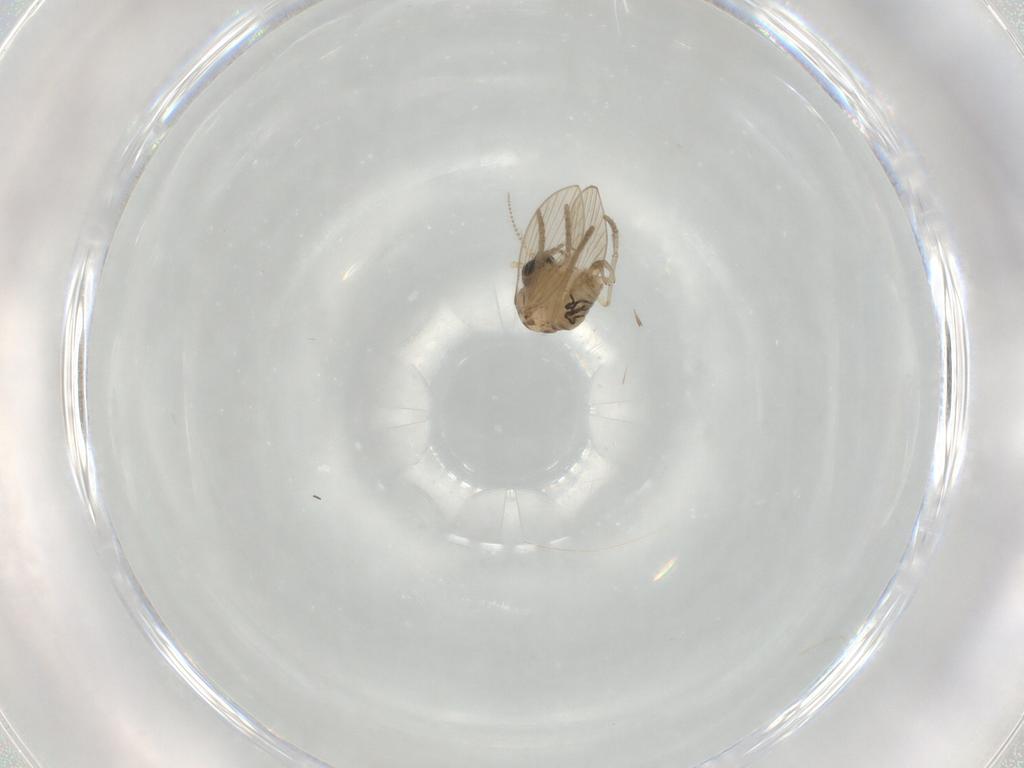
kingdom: Animalia
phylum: Arthropoda
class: Insecta
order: Diptera
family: Psychodidae
